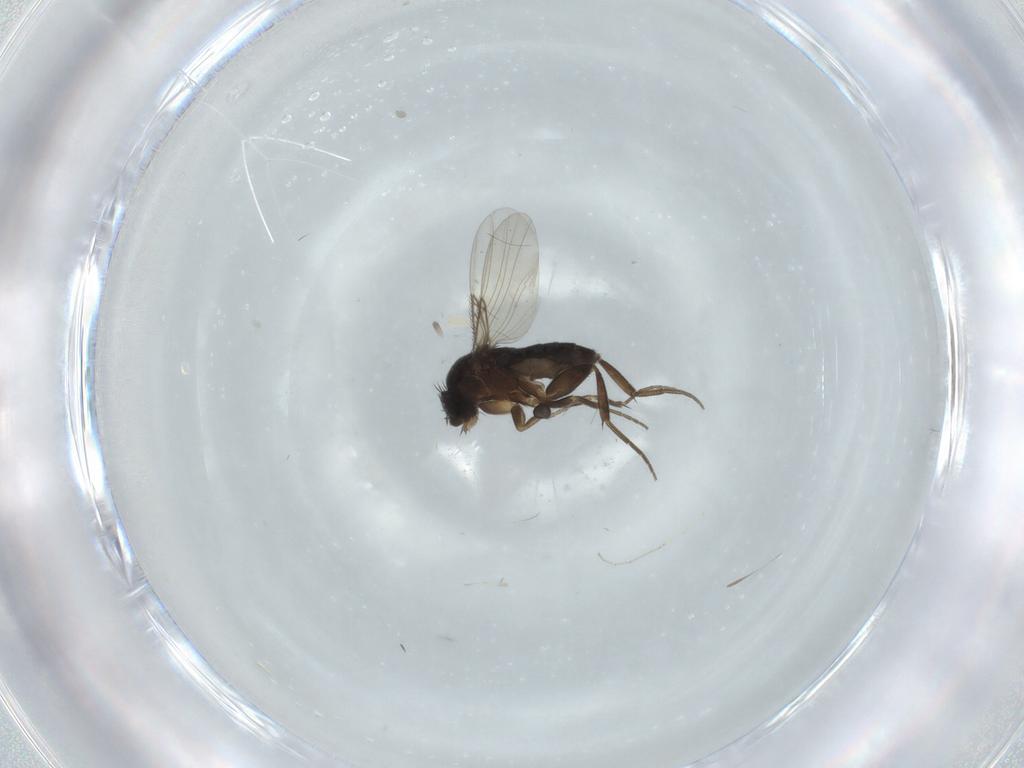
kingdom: Animalia
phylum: Arthropoda
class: Insecta
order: Diptera
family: Phoridae
